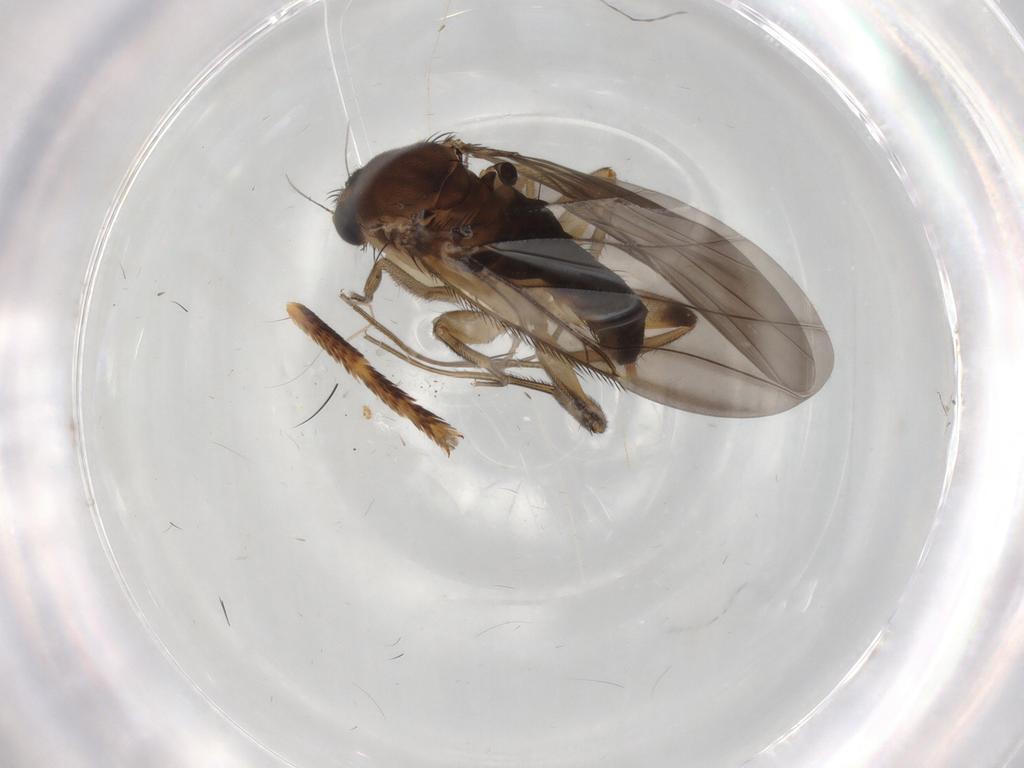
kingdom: Animalia
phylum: Arthropoda
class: Insecta
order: Diptera
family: Phoridae
